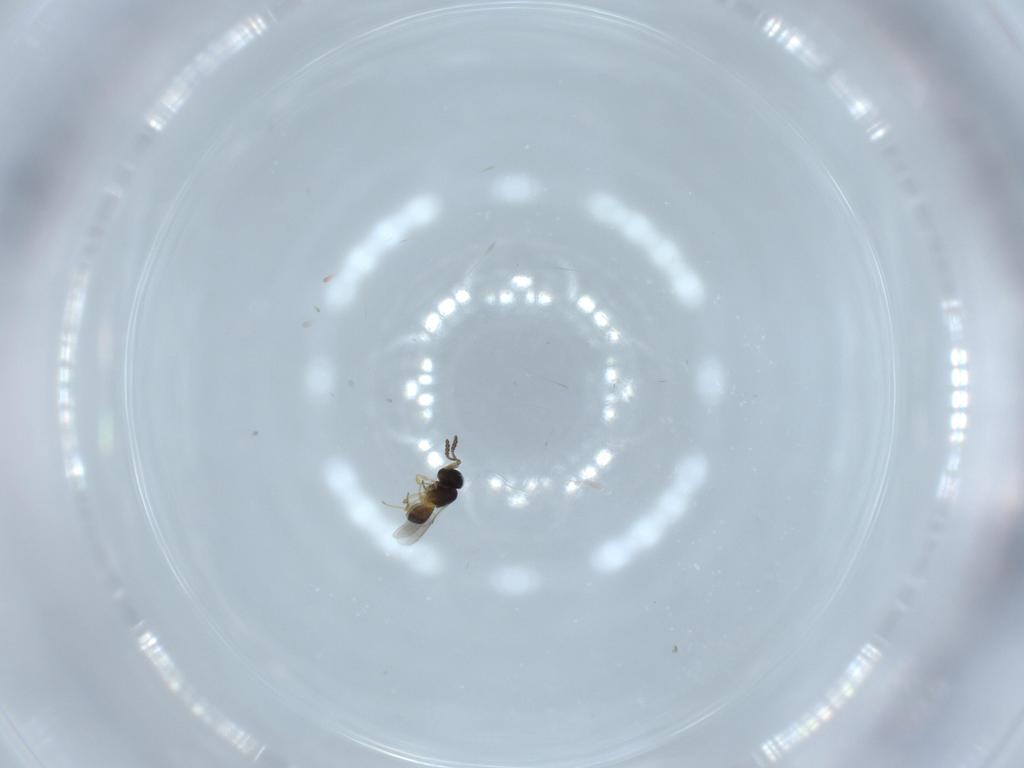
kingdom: Animalia
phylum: Arthropoda
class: Insecta
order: Hymenoptera
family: Scelionidae
